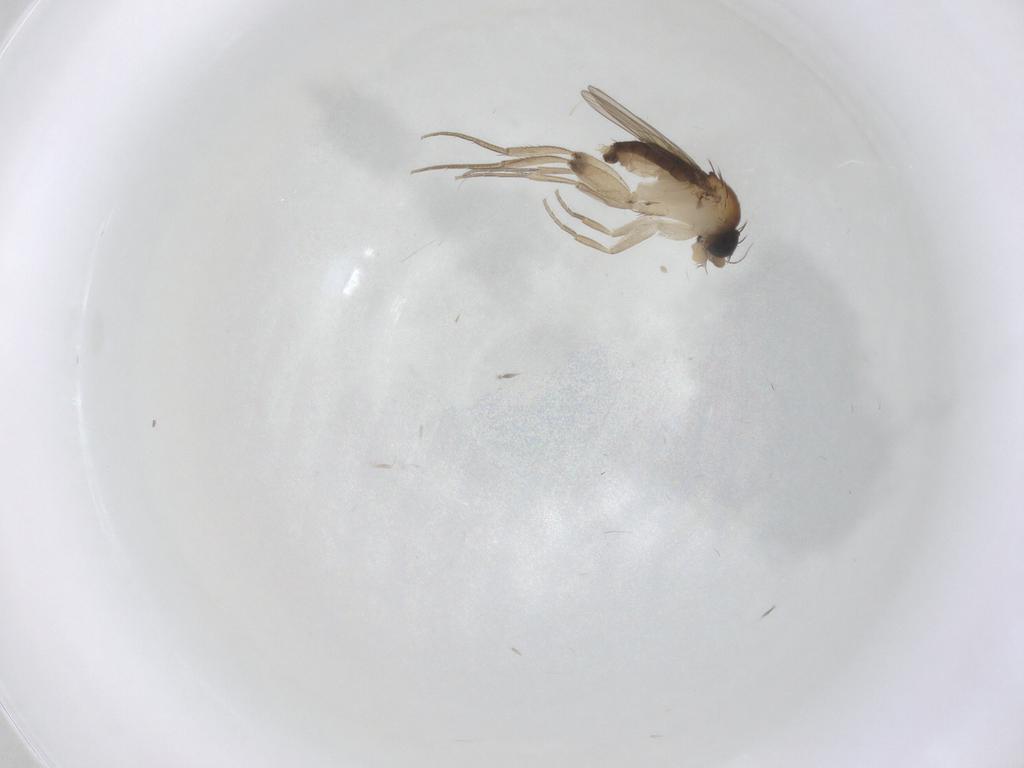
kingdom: Animalia
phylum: Arthropoda
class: Insecta
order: Diptera
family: Phoridae
